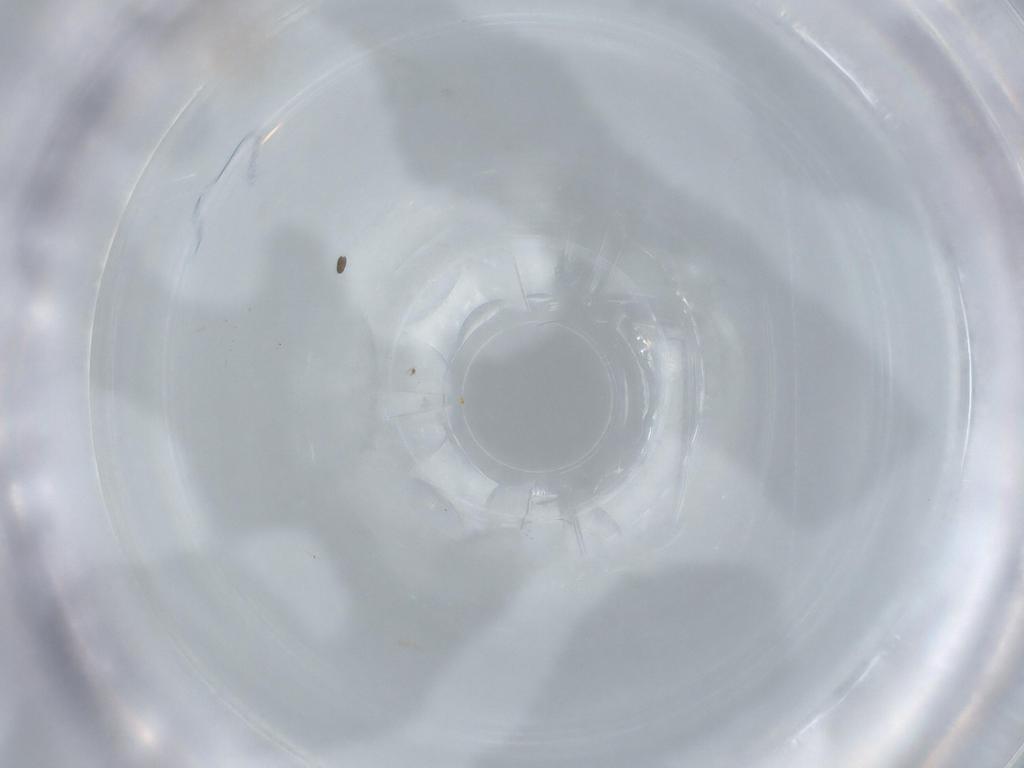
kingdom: Animalia
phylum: Arthropoda
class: Insecta
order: Diptera
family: Cecidomyiidae
